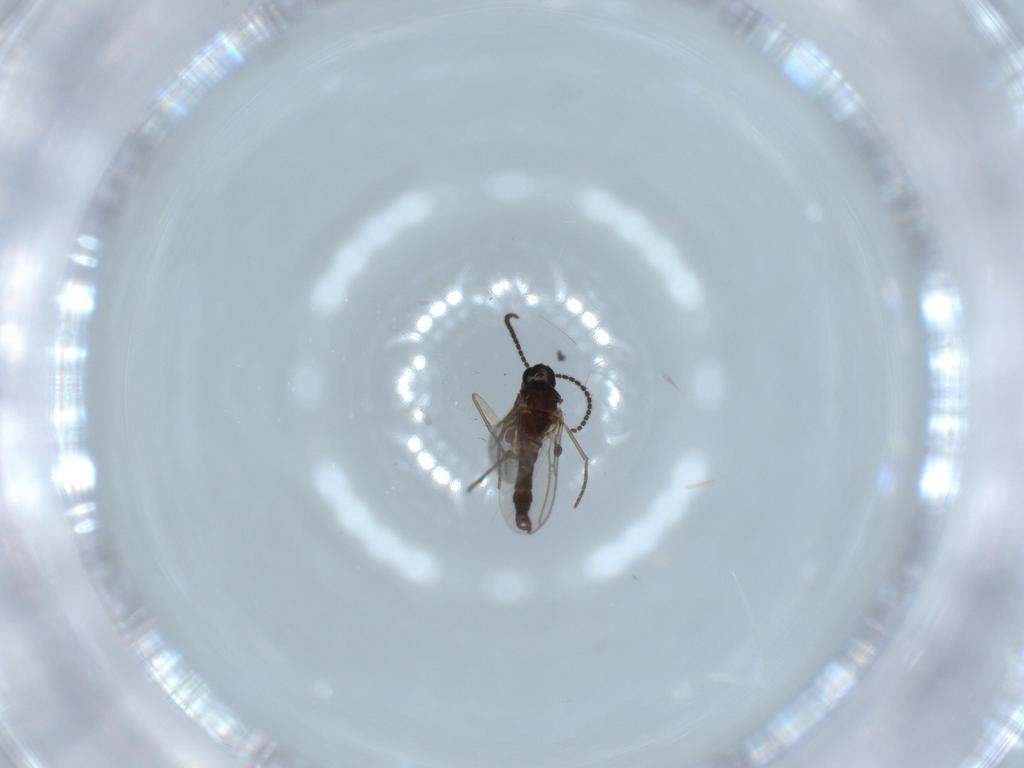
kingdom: Animalia
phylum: Arthropoda
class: Insecta
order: Diptera
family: Sciaridae
